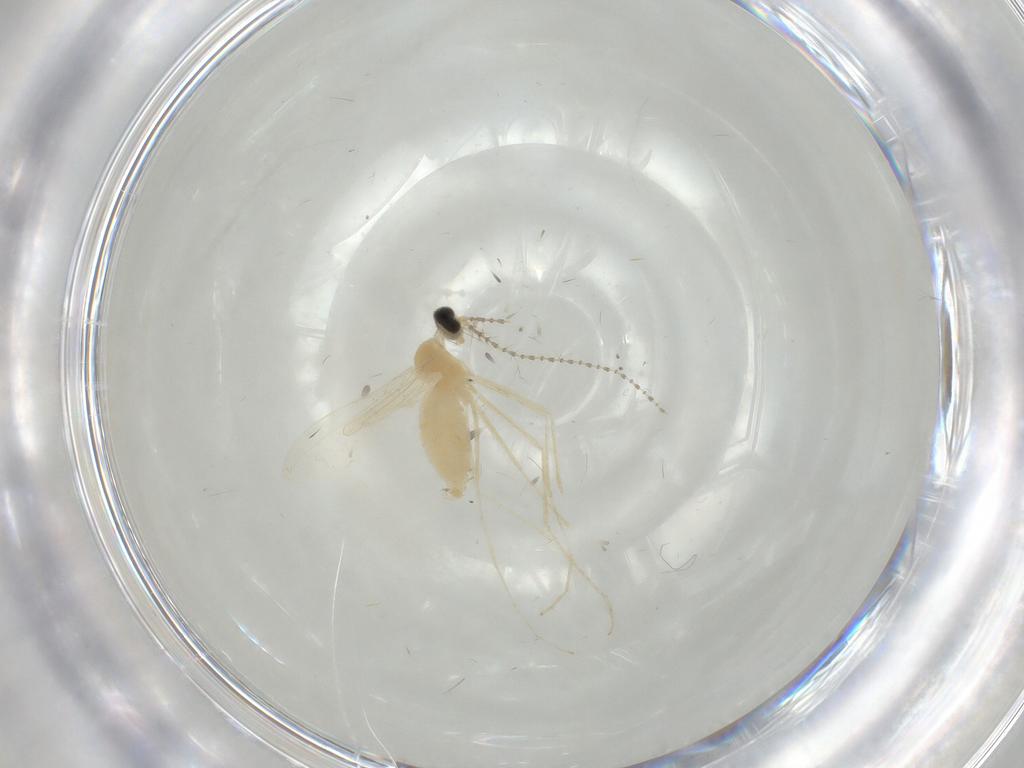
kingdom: Animalia
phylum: Arthropoda
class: Insecta
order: Diptera
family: Cecidomyiidae
